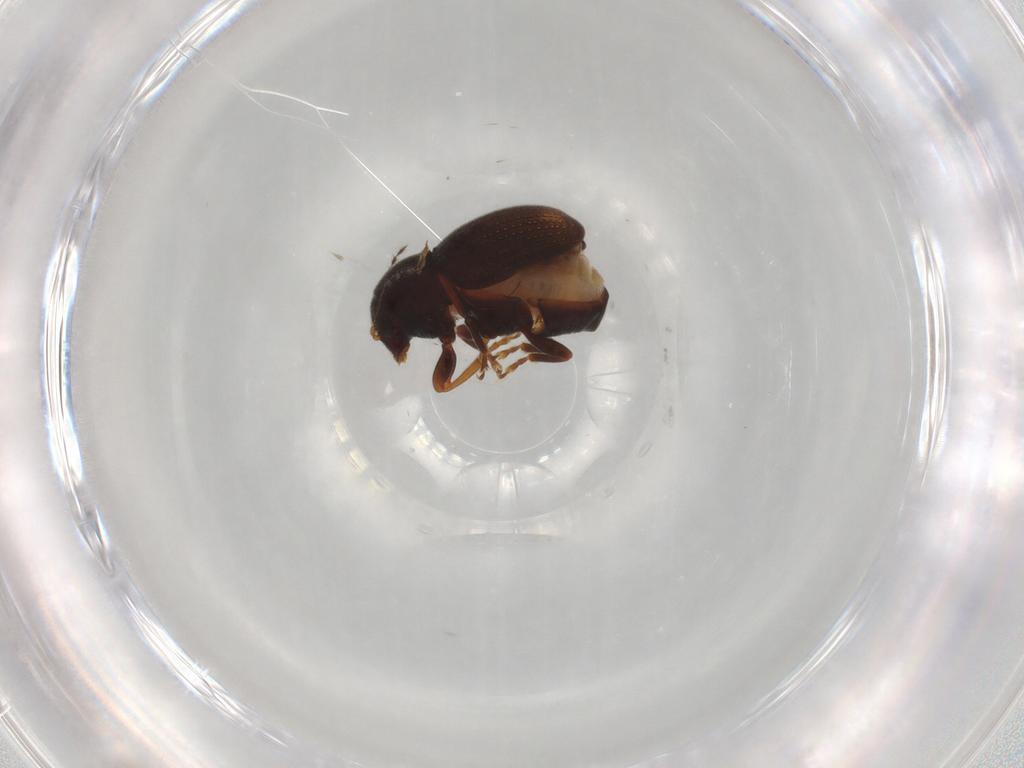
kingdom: Animalia
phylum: Arthropoda
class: Insecta
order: Coleoptera
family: Anthribidae
